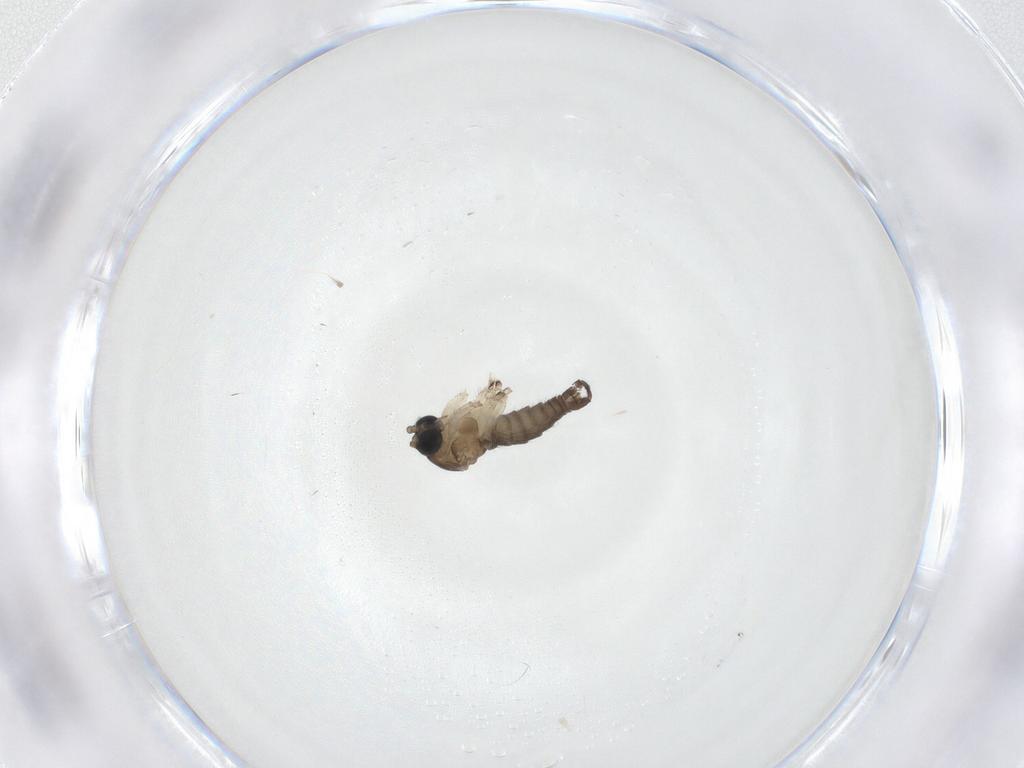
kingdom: Animalia
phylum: Arthropoda
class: Insecta
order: Diptera
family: Sciaridae
